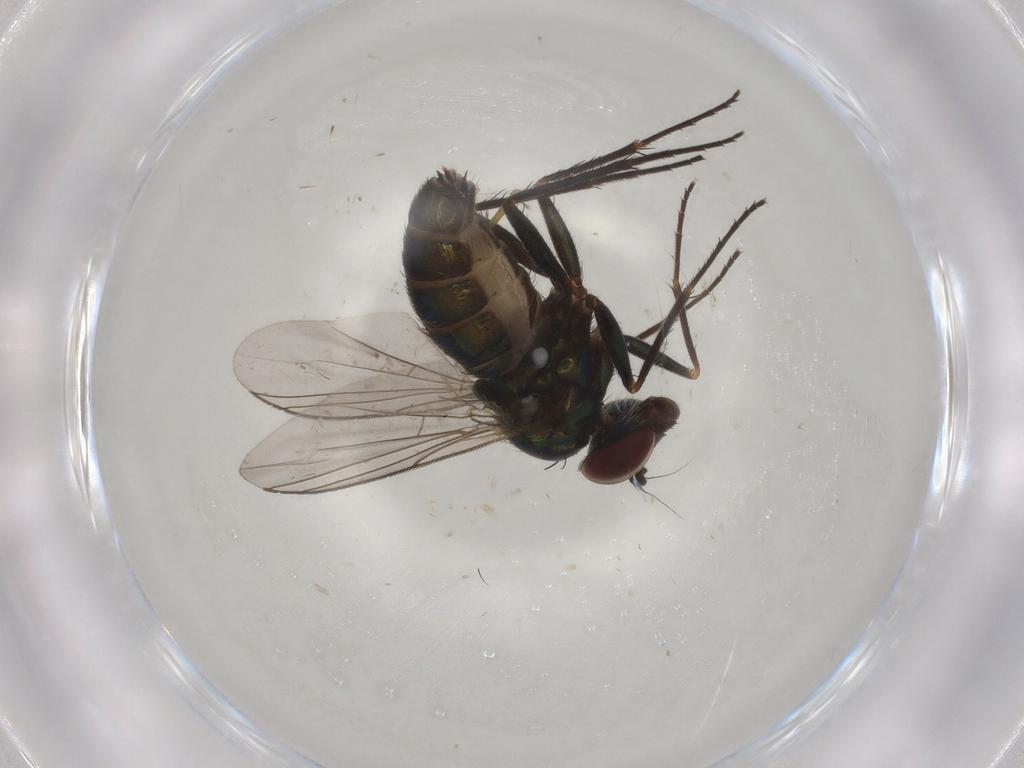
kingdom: Animalia
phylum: Arthropoda
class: Insecta
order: Diptera
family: Dolichopodidae
